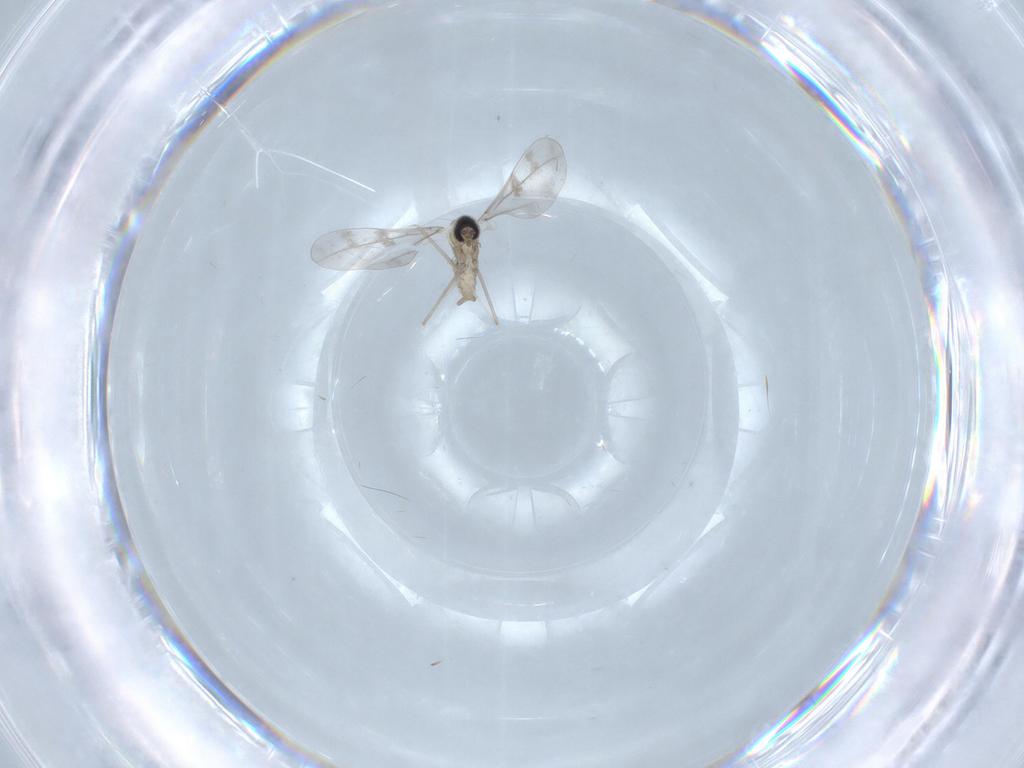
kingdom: Animalia
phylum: Arthropoda
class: Insecta
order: Diptera
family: Cecidomyiidae
